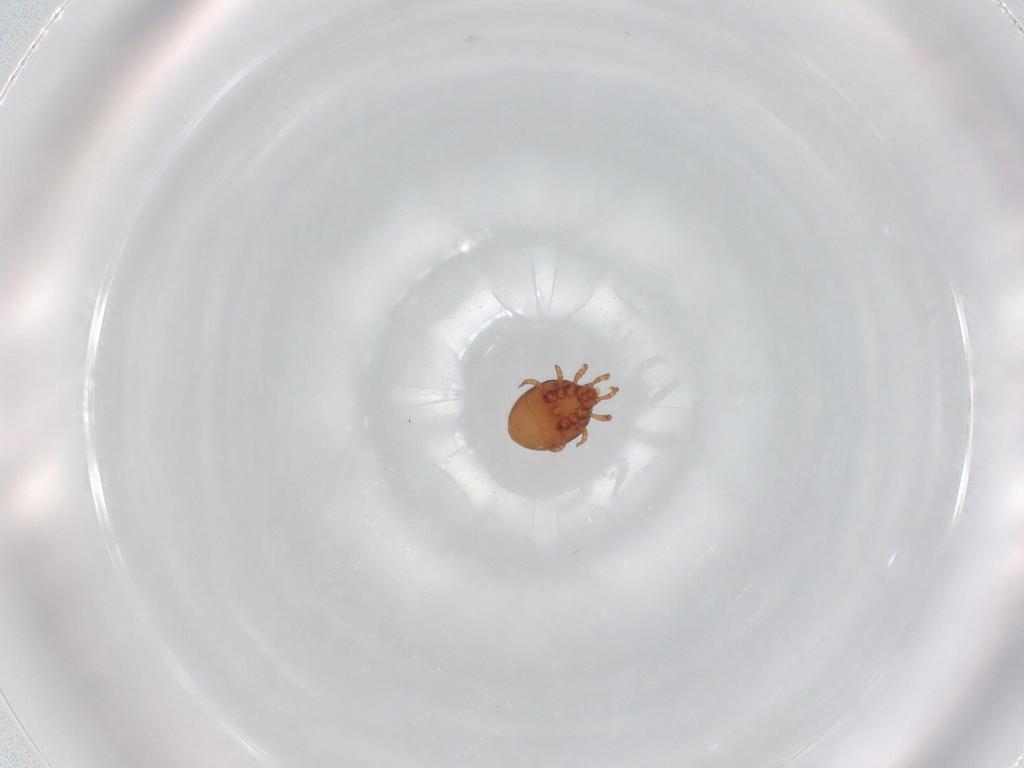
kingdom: Animalia
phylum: Arthropoda
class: Arachnida
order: Mesostigmata
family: Dinychidae
